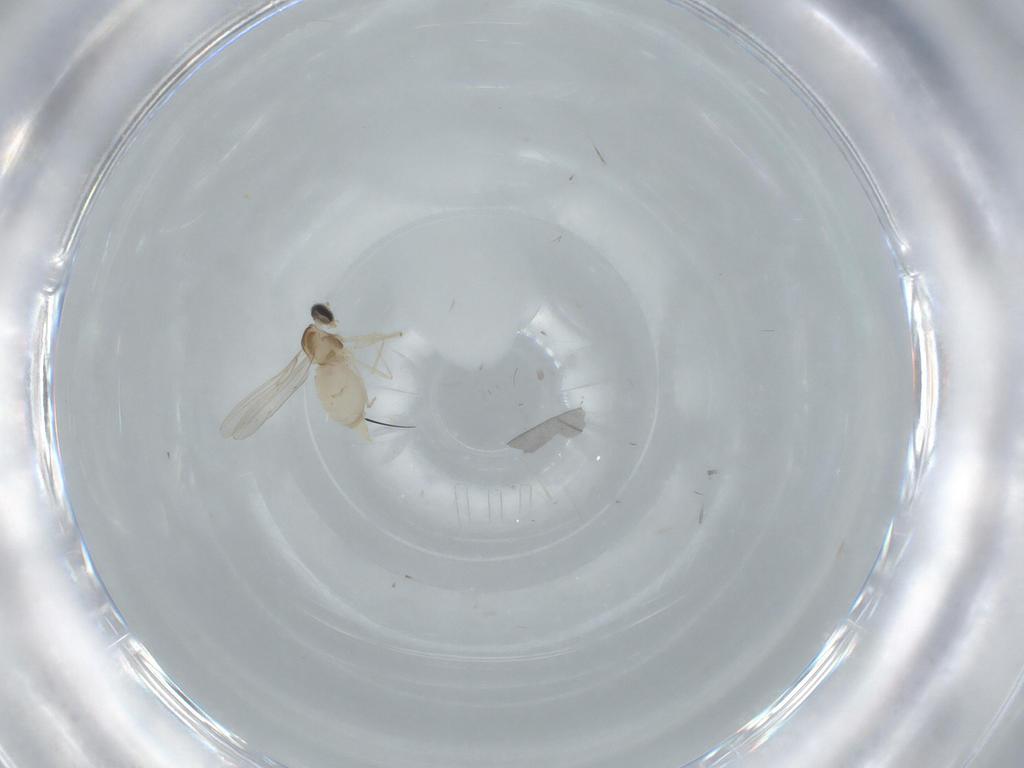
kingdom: Animalia
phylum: Arthropoda
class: Insecta
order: Diptera
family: Cecidomyiidae
